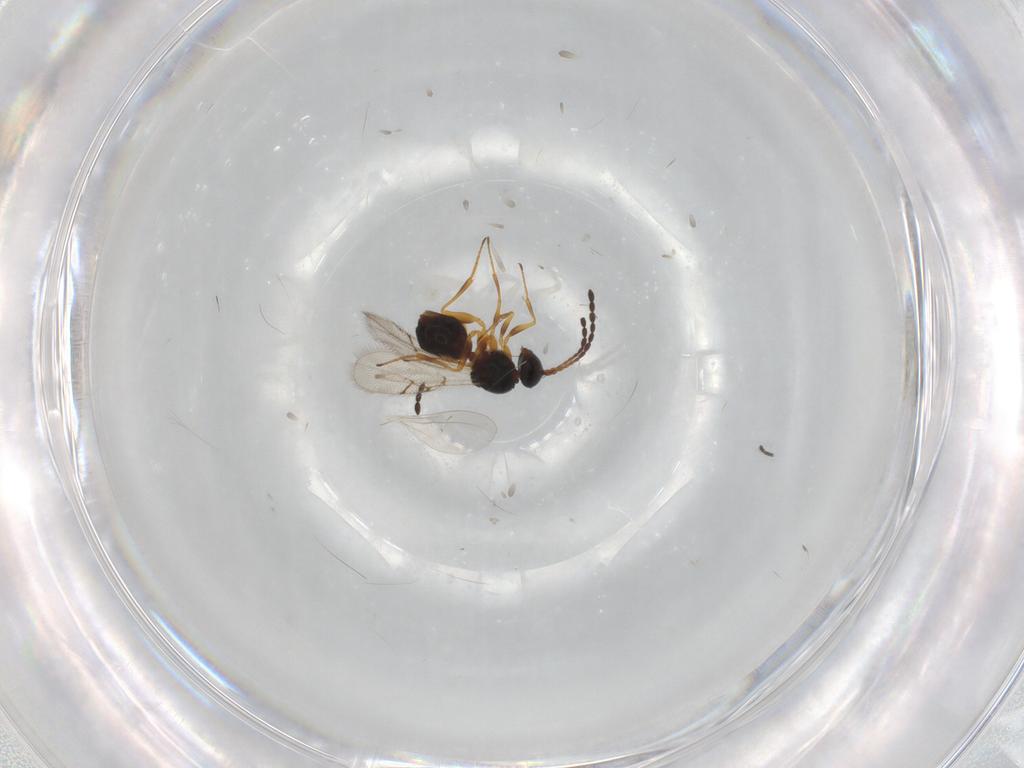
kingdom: Animalia
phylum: Arthropoda
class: Insecta
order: Hymenoptera
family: Figitidae
